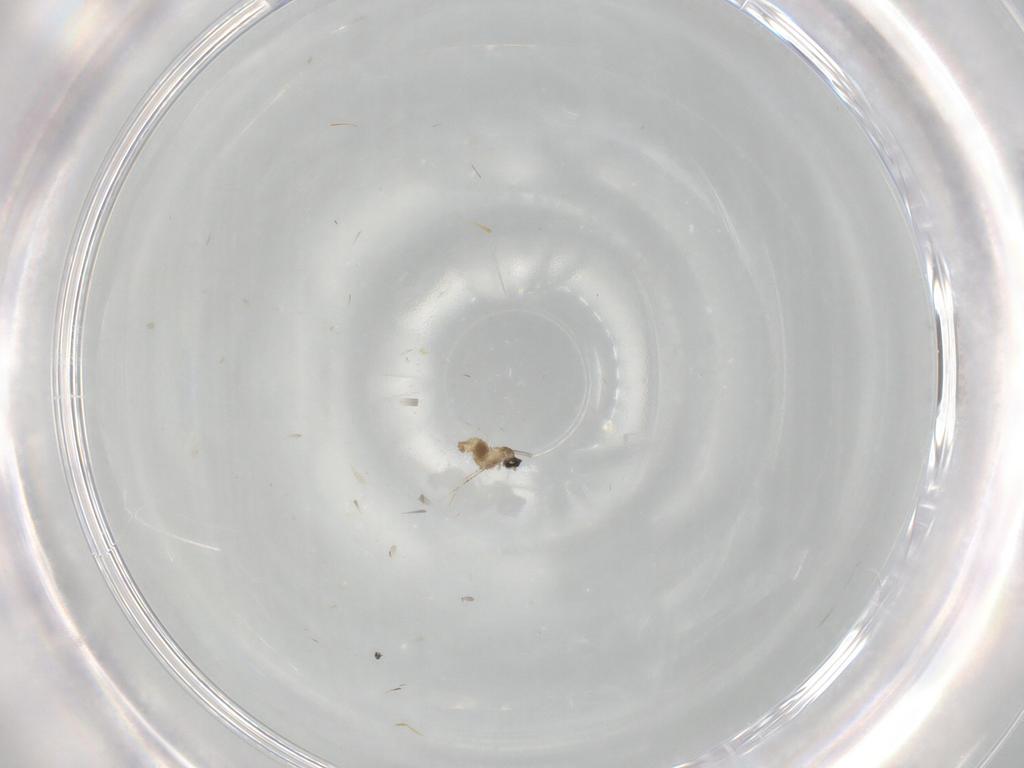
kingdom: Animalia
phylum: Arthropoda
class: Insecta
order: Diptera
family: Cecidomyiidae
